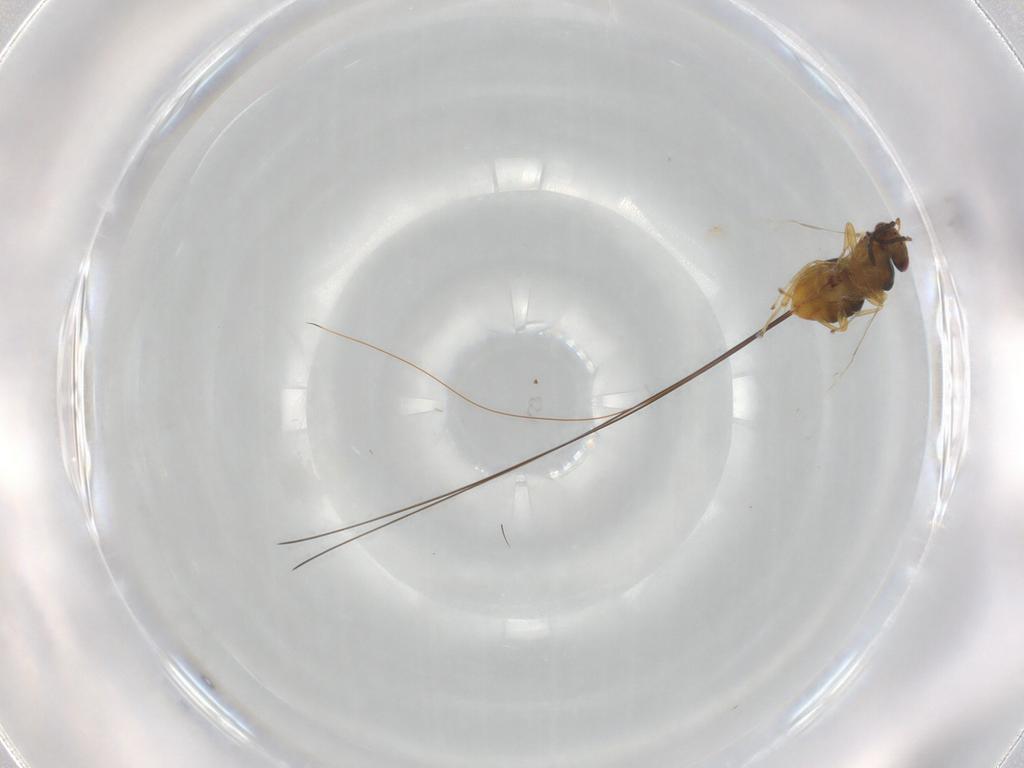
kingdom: Animalia
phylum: Arthropoda
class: Insecta
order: Hymenoptera
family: Agaonidae
